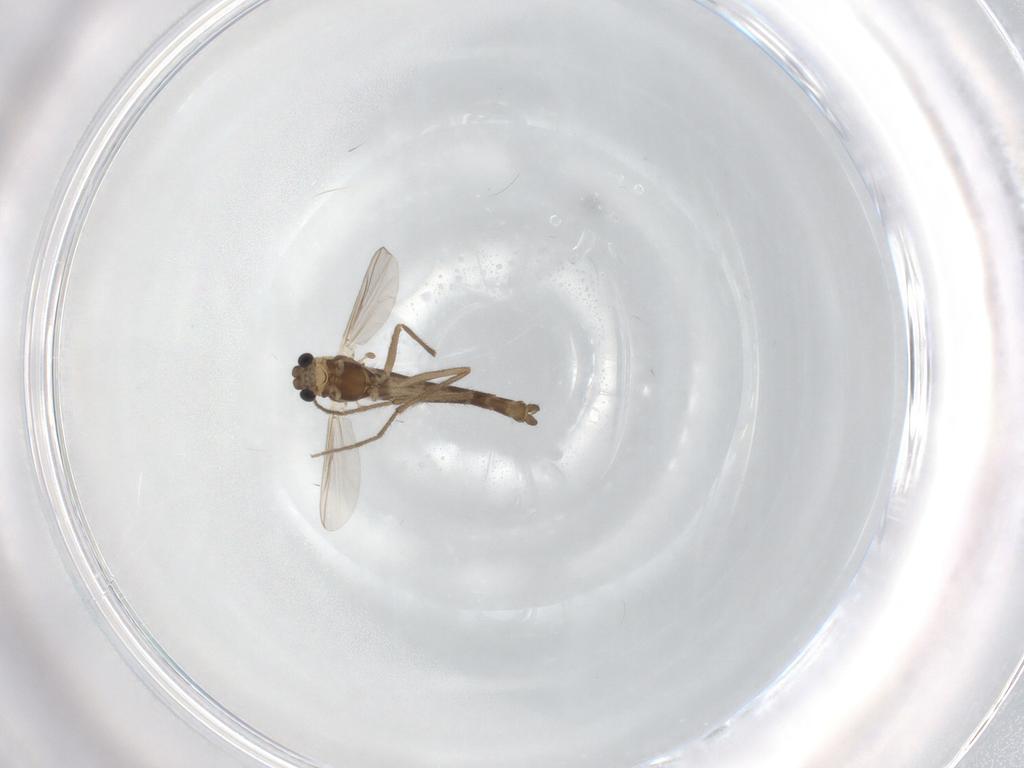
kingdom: Animalia
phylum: Arthropoda
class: Insecta
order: Diptera
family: Chironomidae
